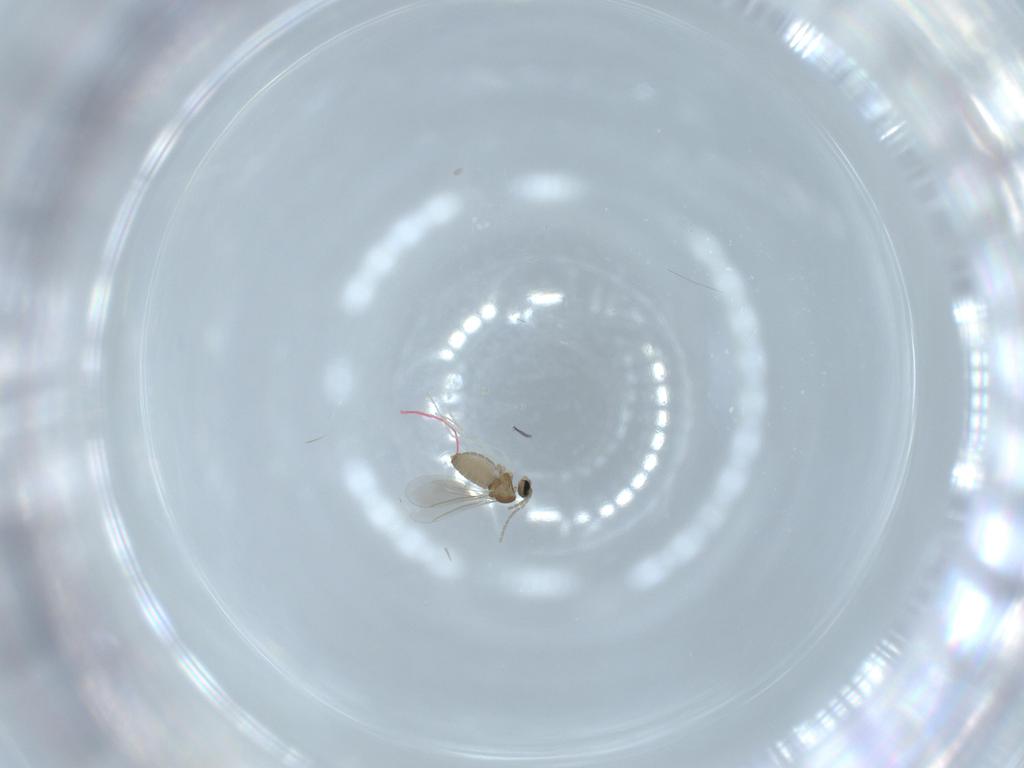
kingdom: Animalia
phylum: Arthropoda
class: Insecta
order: Diptera
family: Cecidomyiidae
